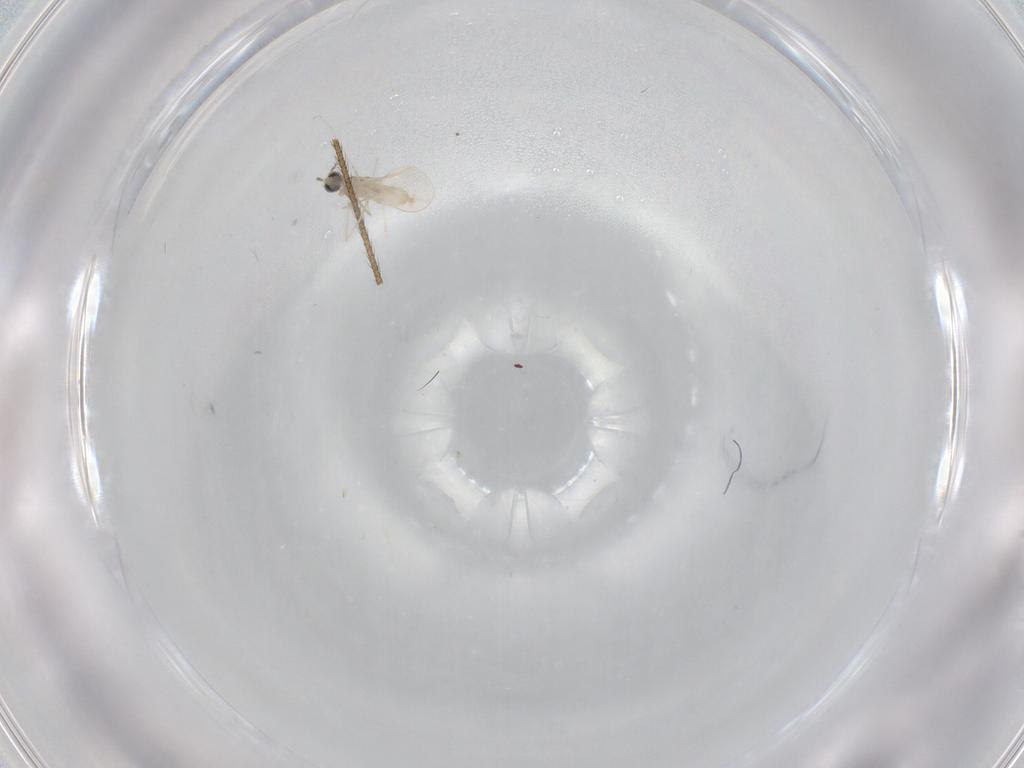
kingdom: Animalia
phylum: Arthropoda
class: Insecta
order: Diptera
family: Cecidomyiidae
